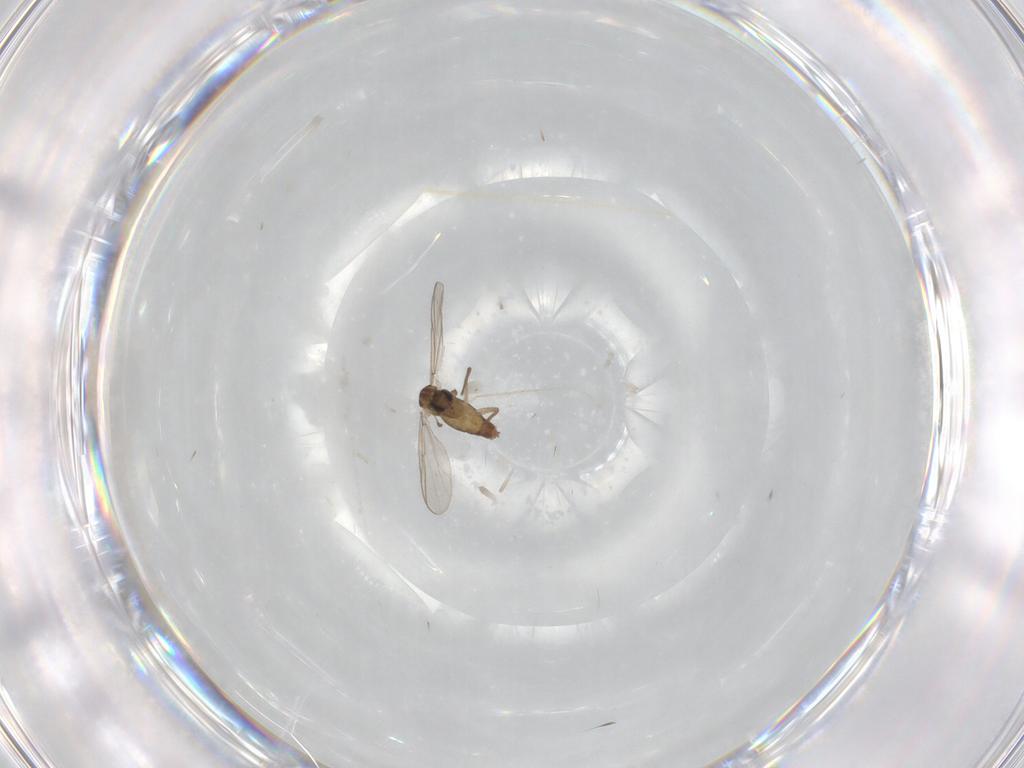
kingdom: Animalia
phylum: Arthropoda
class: Insecta
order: Diptera
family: Chironomidae
